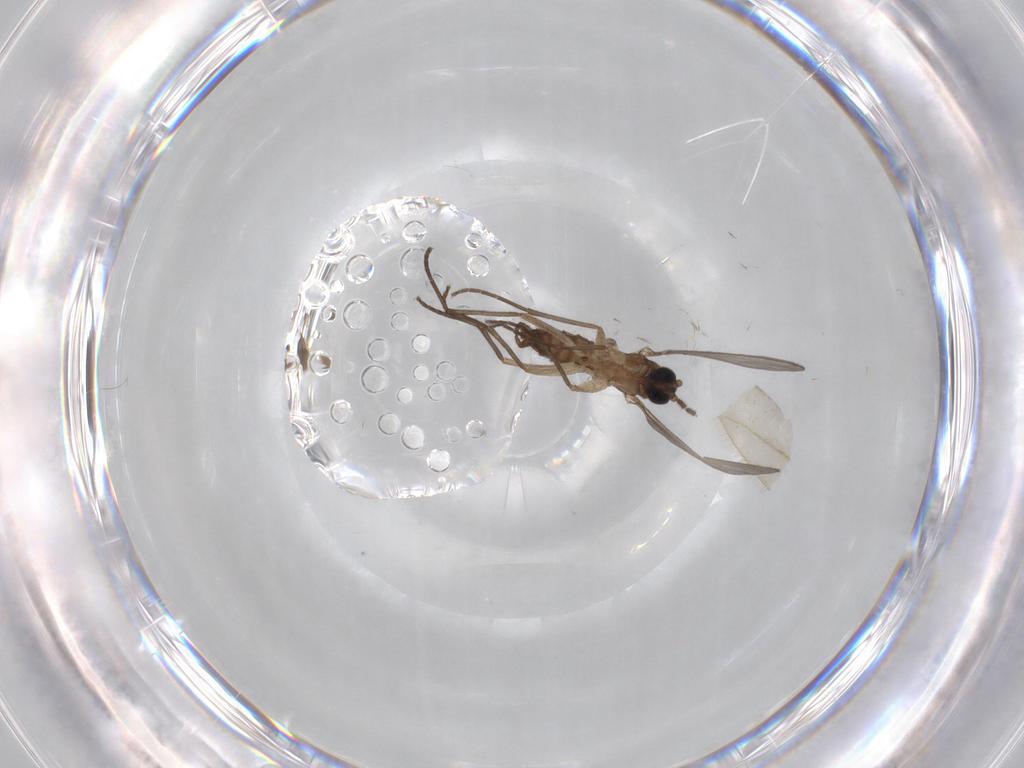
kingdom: Animalia
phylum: Arthropoda
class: Insecta
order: Diptera
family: Sciaridae
